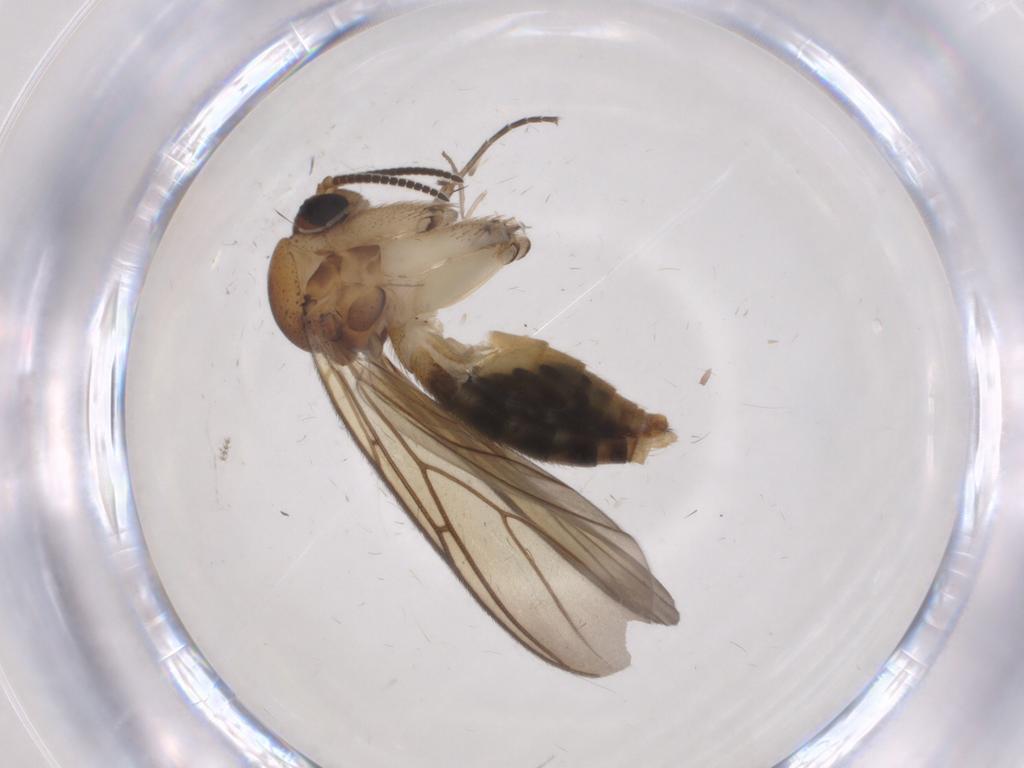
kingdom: Animalia
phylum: Arthropoda
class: Insecta
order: Diptera
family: Mycetophilidae
